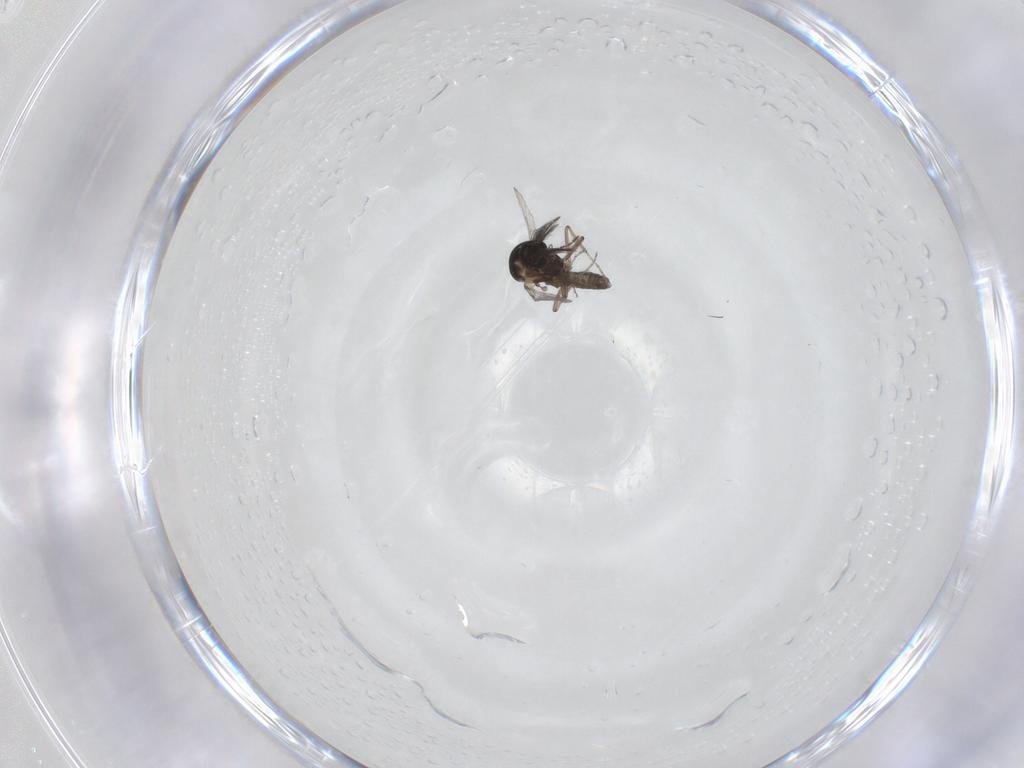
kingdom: Animalia
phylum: Arthropoda
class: Insecta
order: Diptera
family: Ceratopogonidae
